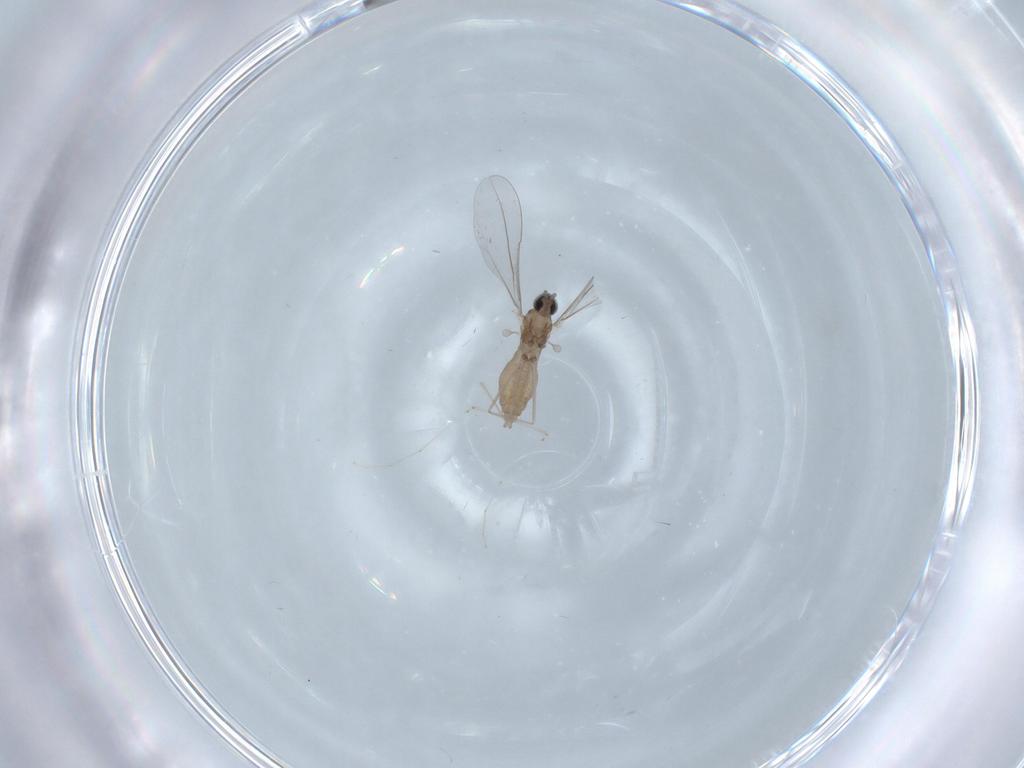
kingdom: Animalia
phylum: Arthropoda
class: Insecta
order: Diptera
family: Cecidomyiidae
